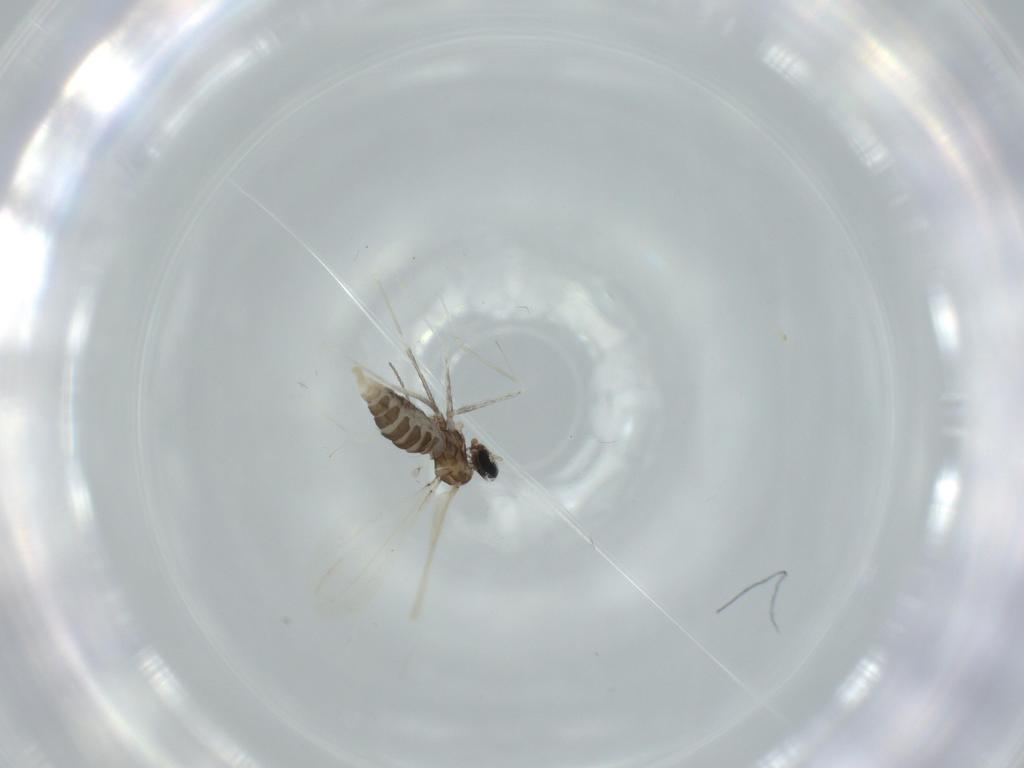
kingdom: Animalia
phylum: Arthropoda
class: Insecta
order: Diptera
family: Cecidomyiidae
